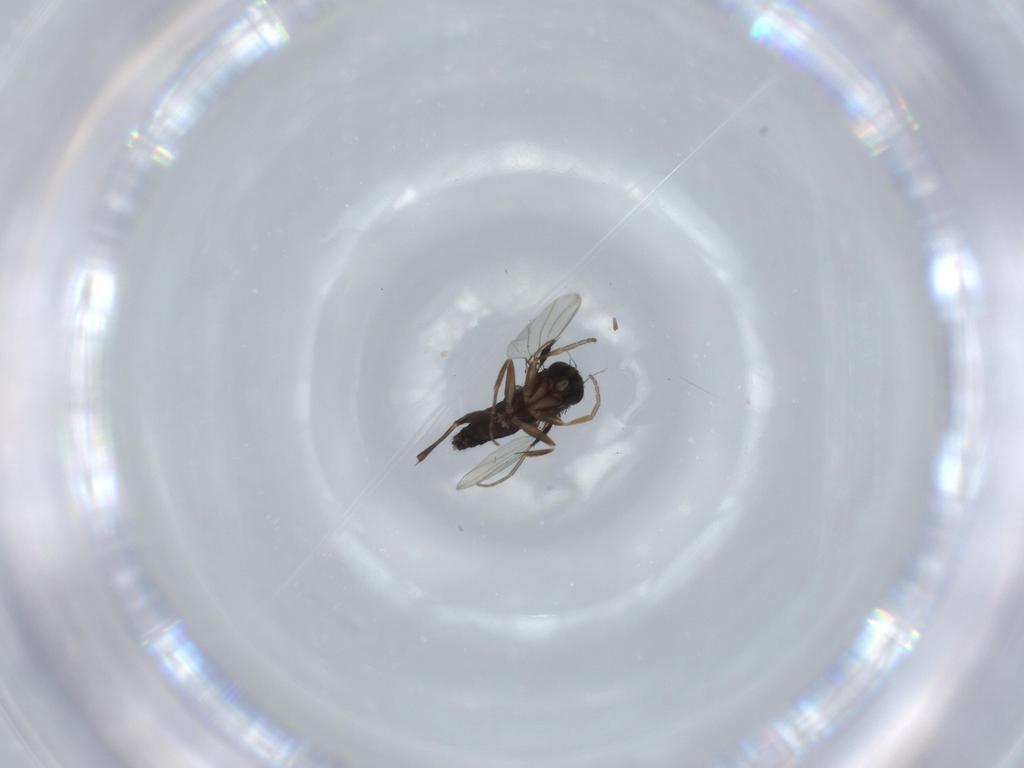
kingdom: Animalia
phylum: Arthropoda
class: Insecta
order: Diptera
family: Phoridae
